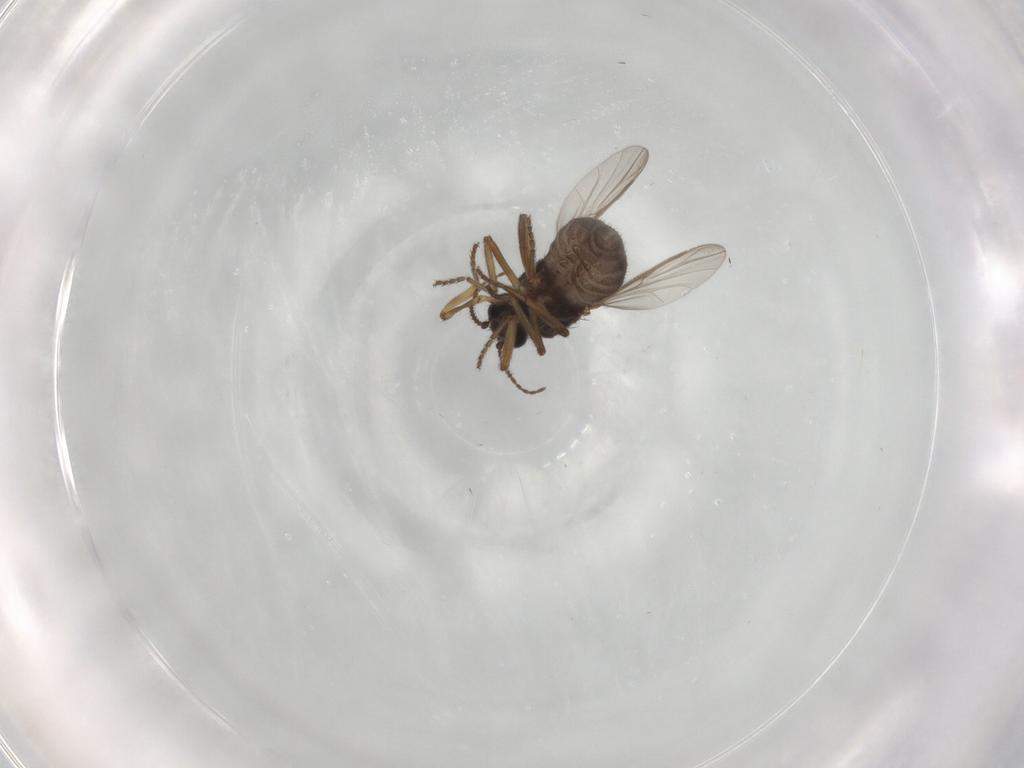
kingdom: Animalia
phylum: Arthropoda
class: Insecta
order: Diptera
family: Ceratopogonidae
